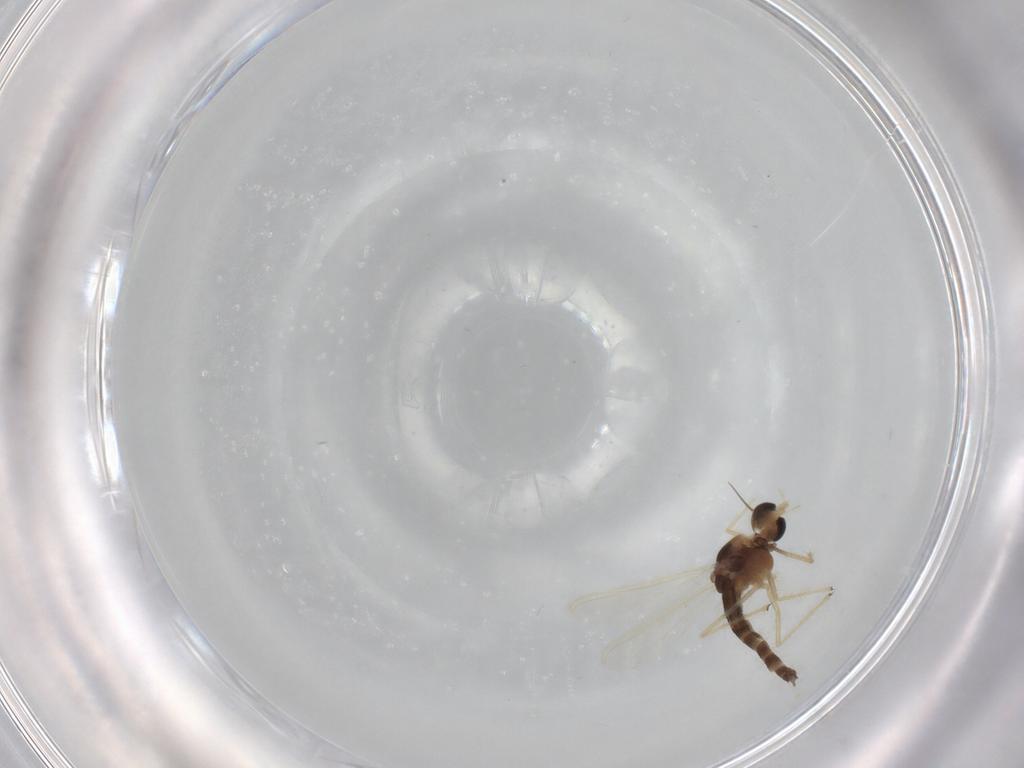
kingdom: Animalia
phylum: Arthropoda
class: Insecta
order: Diptera
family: Chironomidae
